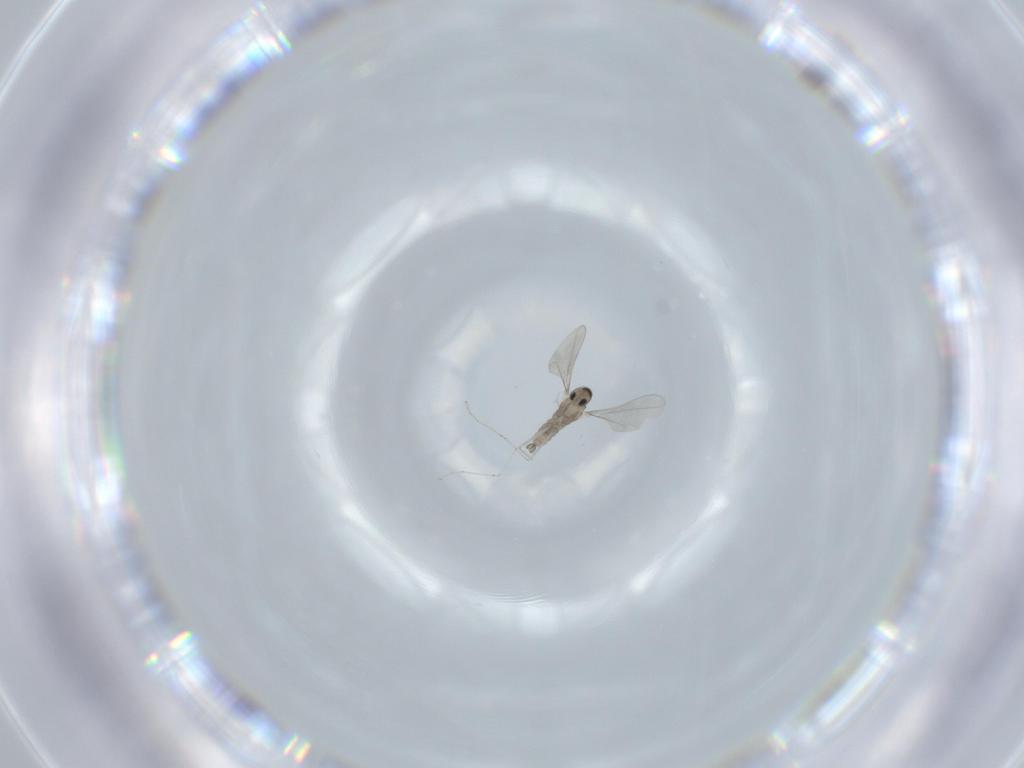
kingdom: Animalia
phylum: Arthropoda
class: Insecta
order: Diptera
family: Cecidomyiidae
